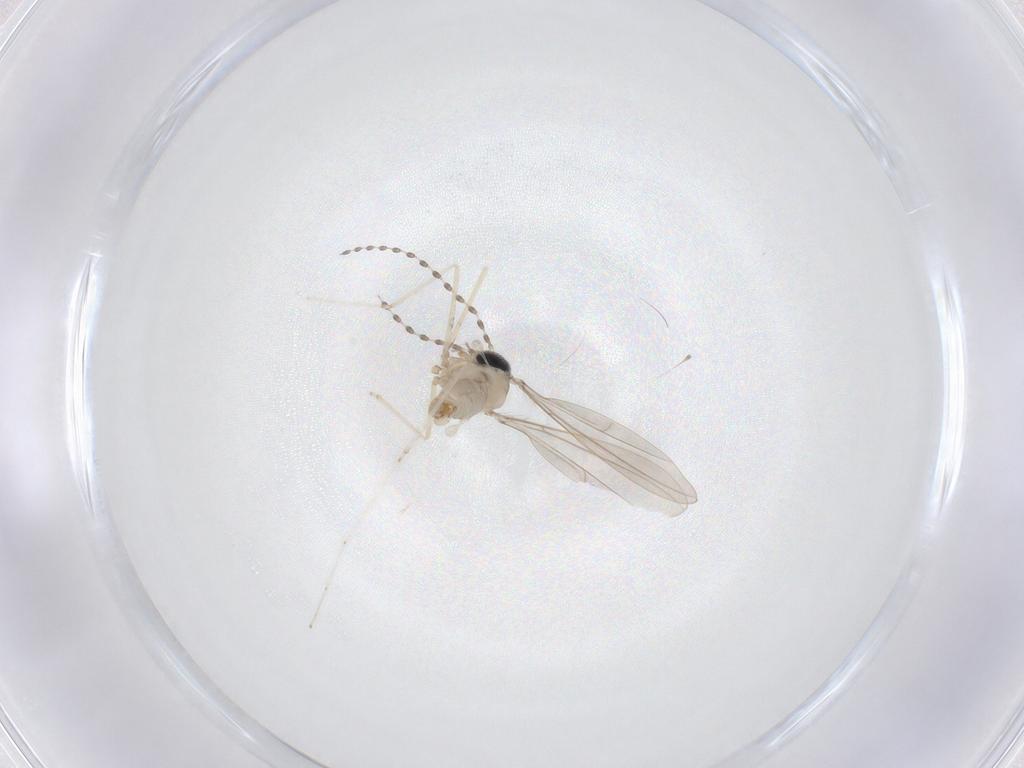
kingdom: Animalia
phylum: Arthropoda
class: Insecta
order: Diptera
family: Cecidomyiidae
